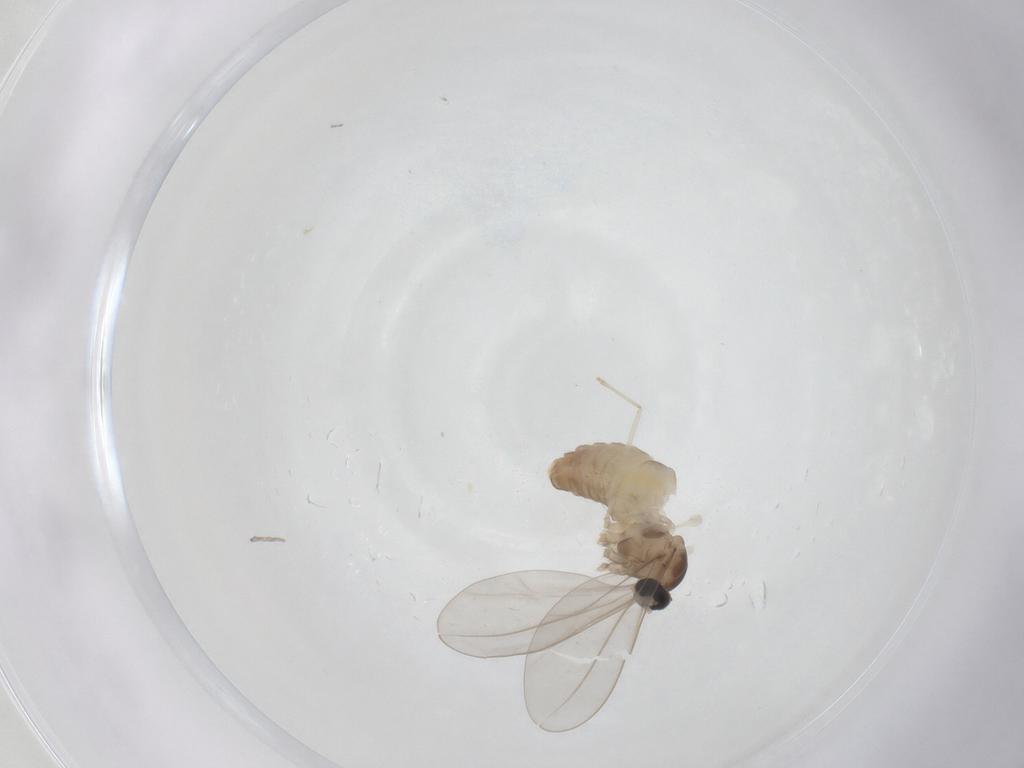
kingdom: Animalia
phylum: Arthropoda
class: Insecta
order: Diptera
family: Cecidomyiidae
